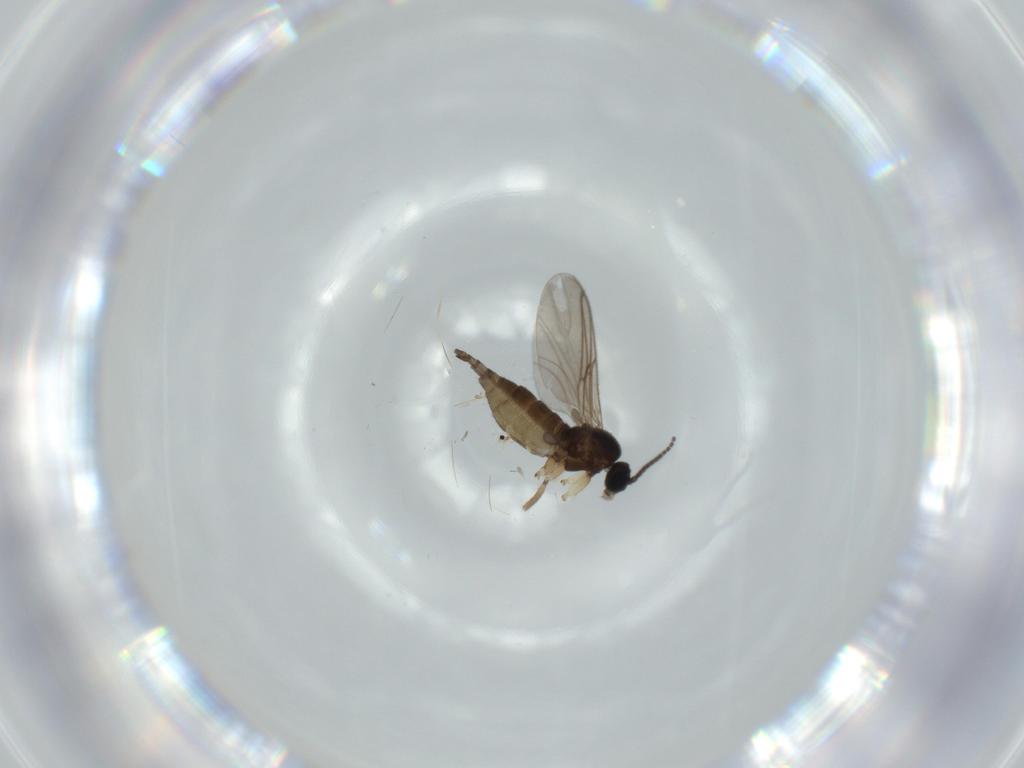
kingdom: Animalia
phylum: Arthropoda
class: Insecta
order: Diptera
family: Sciaridae
